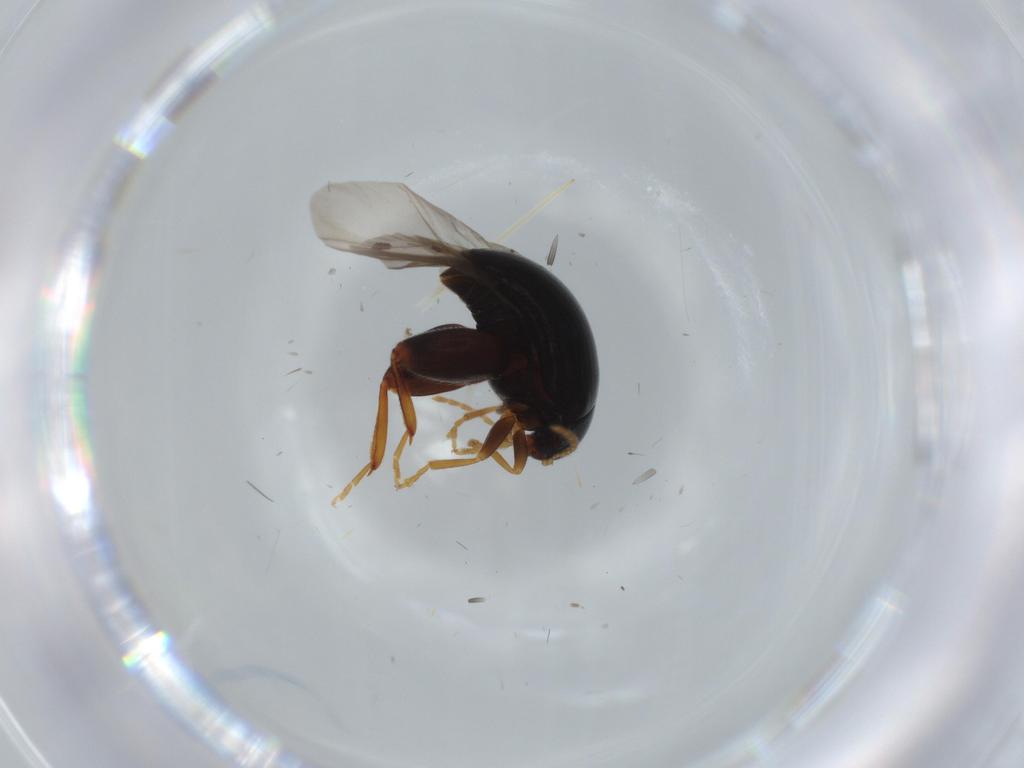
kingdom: Animalia
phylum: Arthropoda
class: Insecta
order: Coleoptera
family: Chrysomelidae
